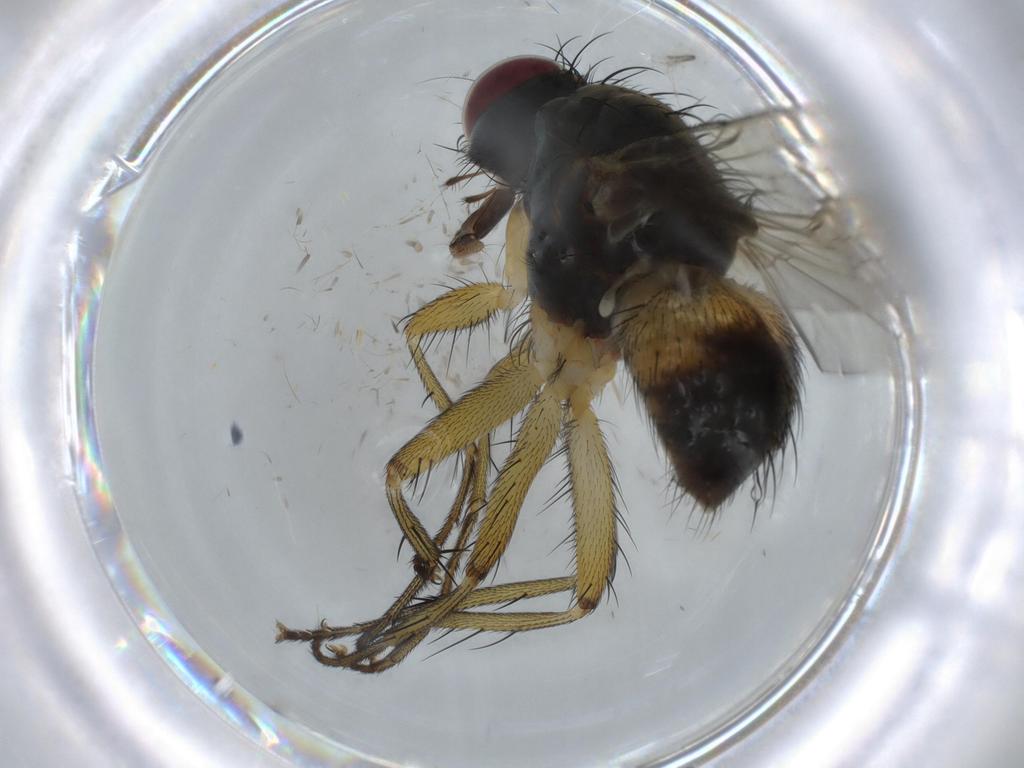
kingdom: Animalia
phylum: Arthropoda
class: Insecta
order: Diptera
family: Muscidae
